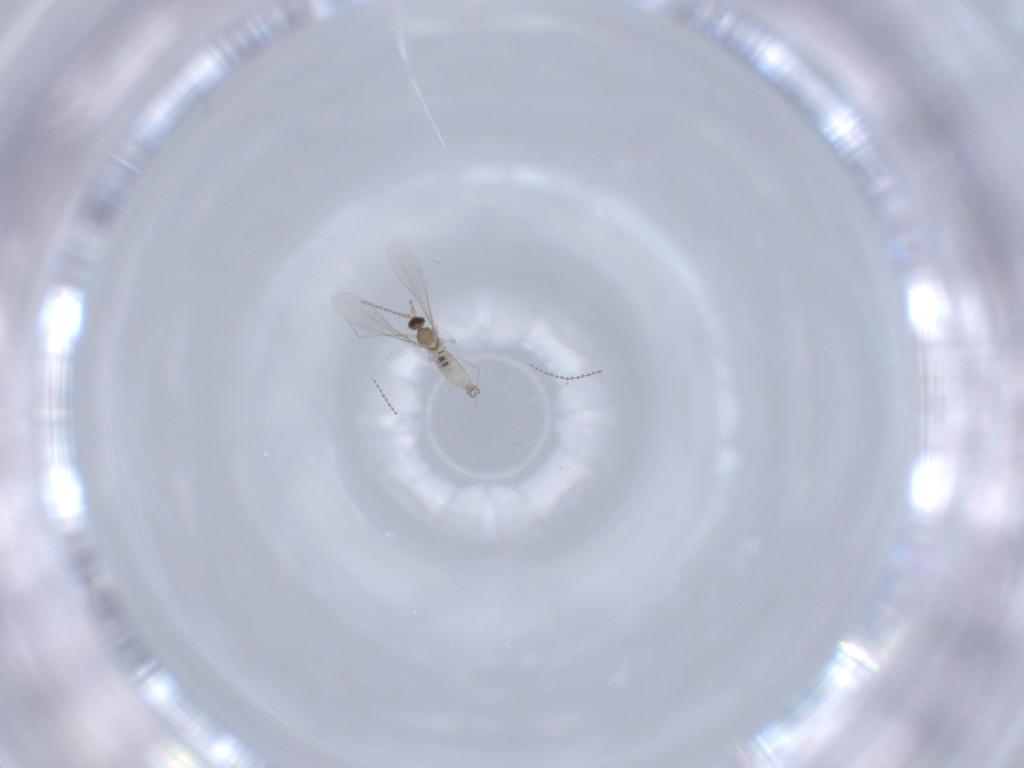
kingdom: Animalia
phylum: Arthropoda
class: Insecta
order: Diptera
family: Cecidomyiidae
